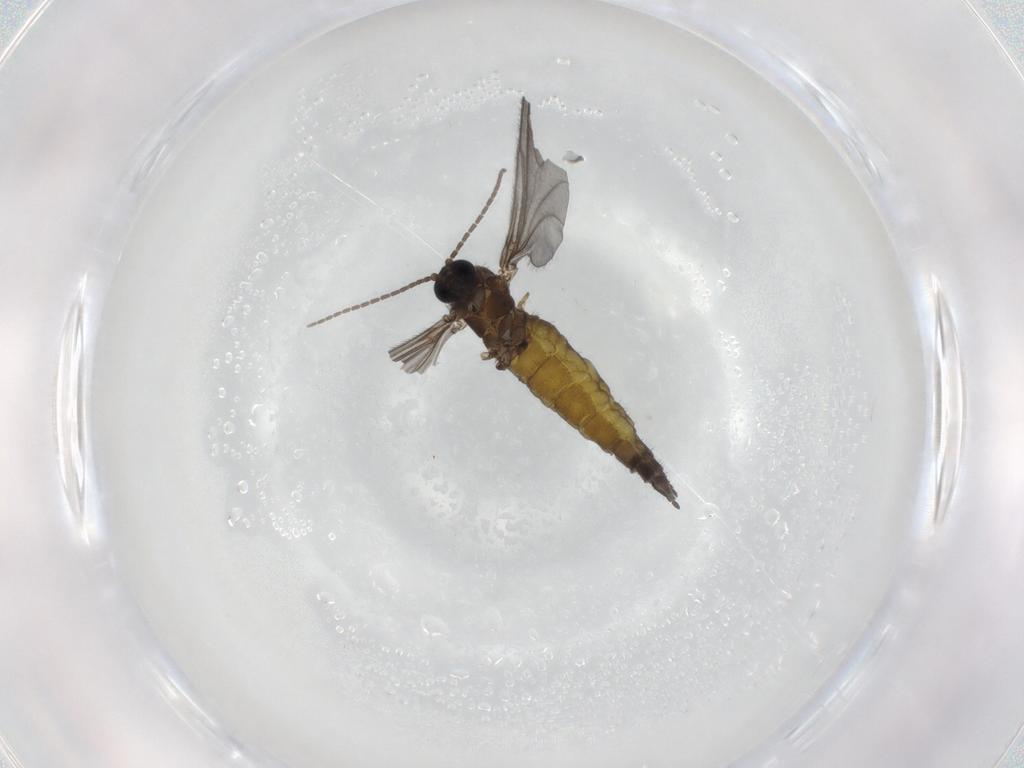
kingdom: Animalia
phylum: Arthropoda
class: Insecta
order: Diptera
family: Sciaridae
